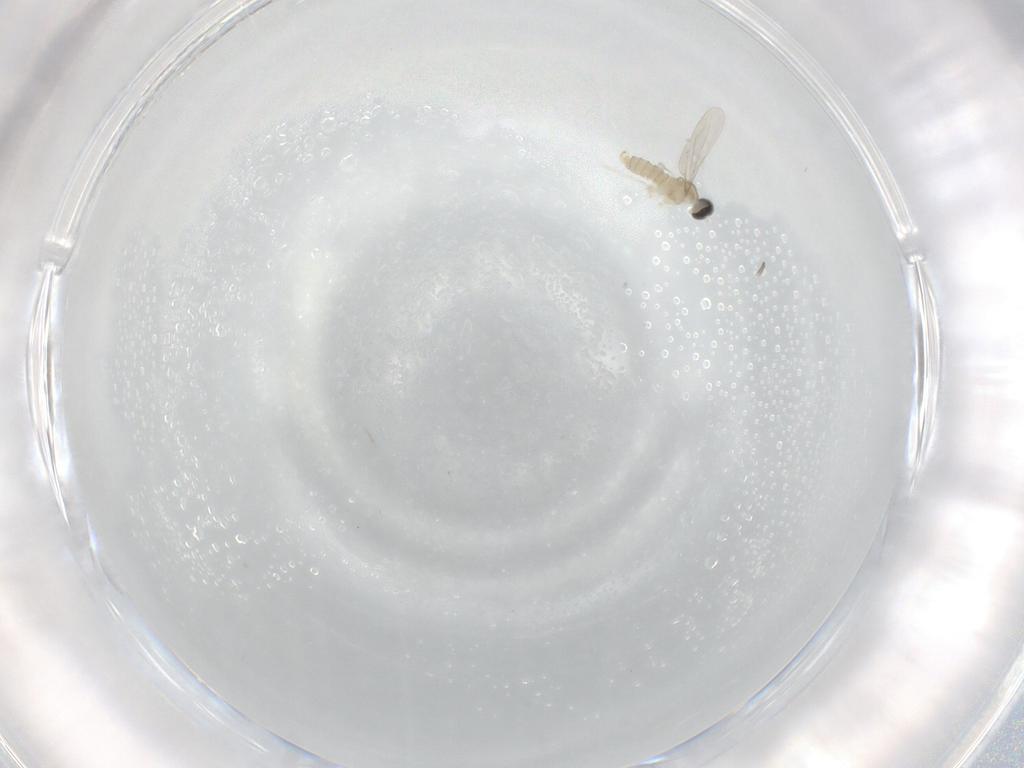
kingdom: Animalia
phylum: Arthropoda
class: Insecta
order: Diptera
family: Cecidomyiidae
